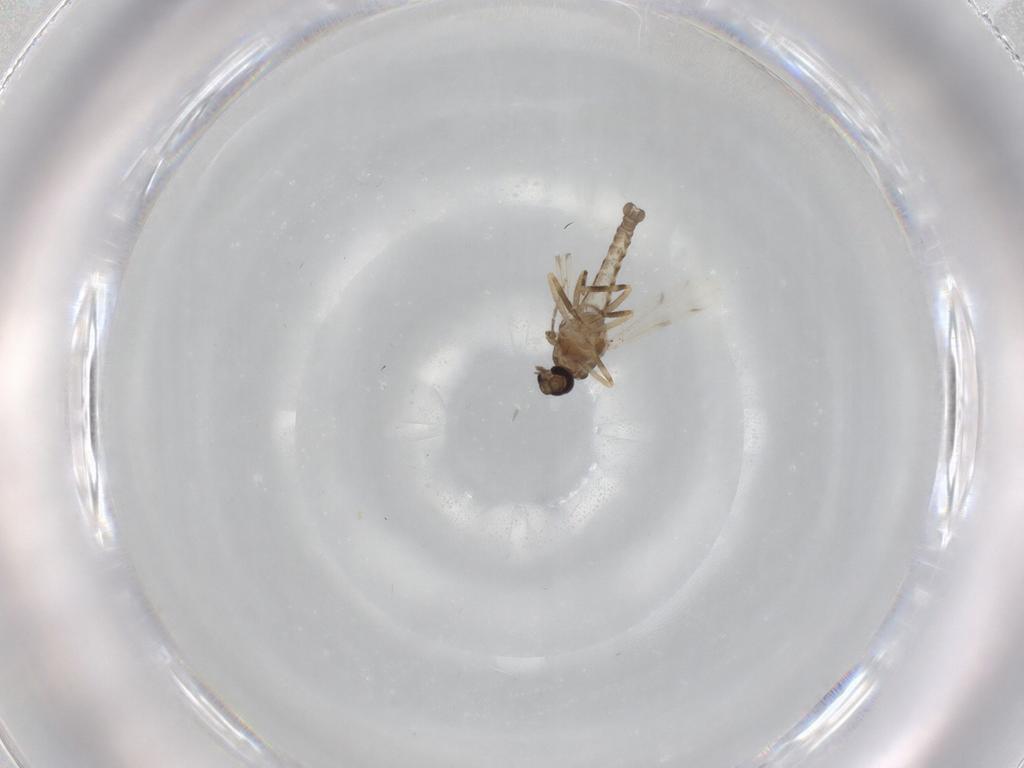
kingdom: Animalia
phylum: Arthropoda
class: Insecta
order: Diptera
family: Ceratopogonidae
